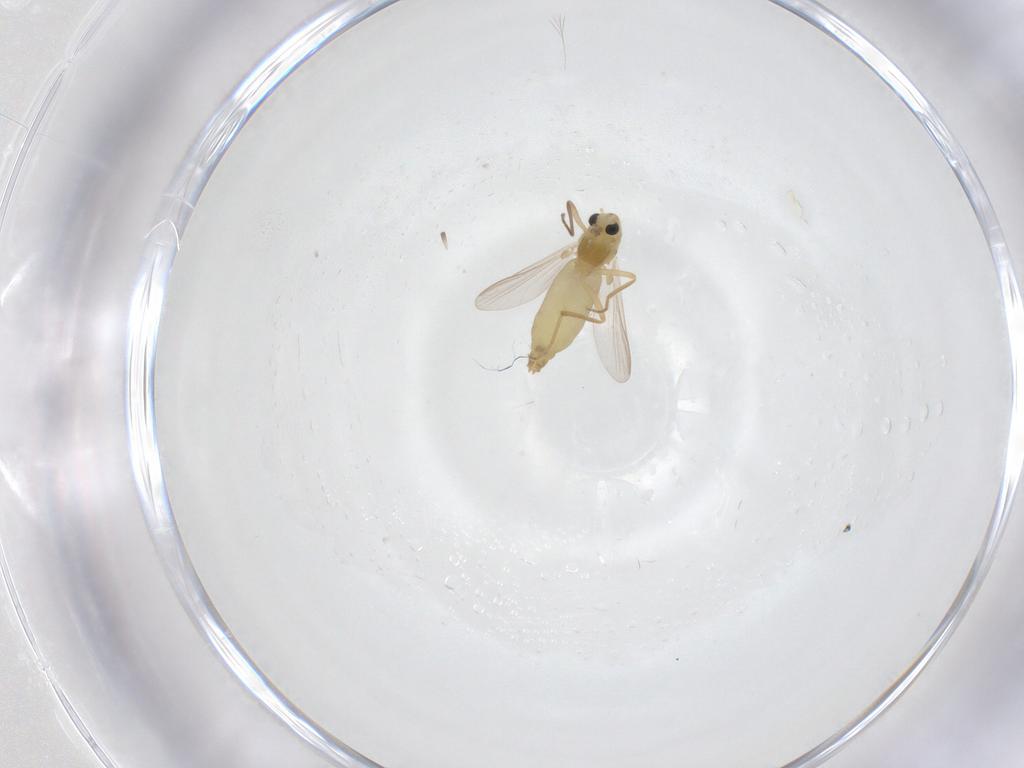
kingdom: Animalia
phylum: Arthropoda
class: Insecta
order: Diptera
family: Chironomidae
